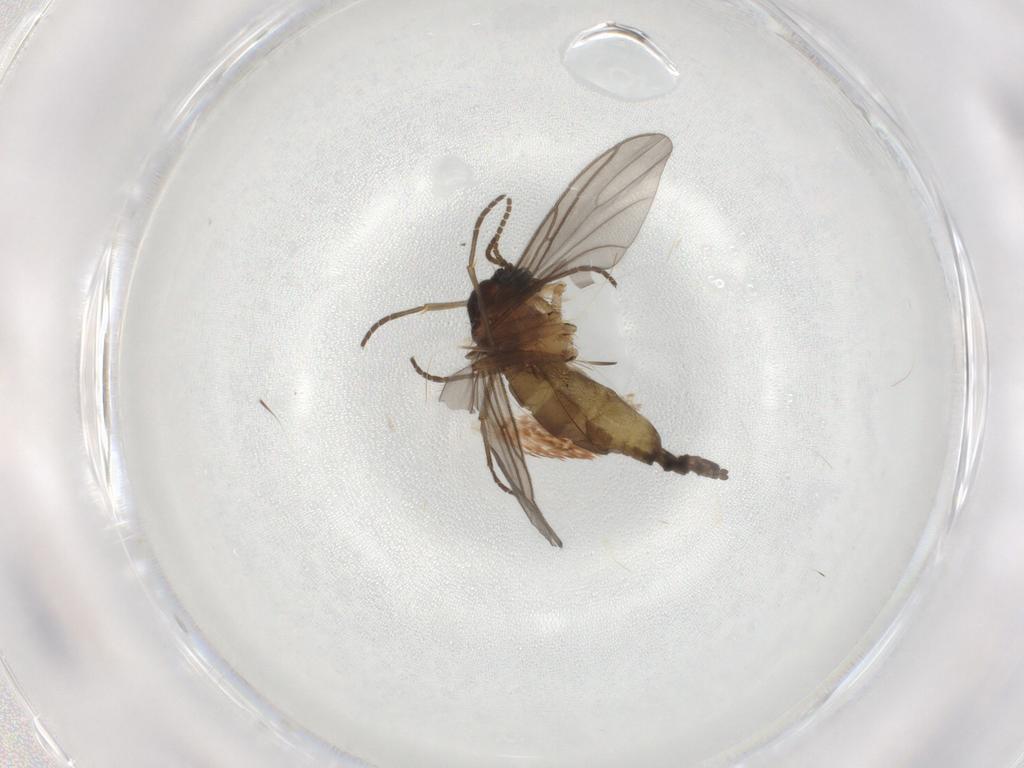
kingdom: Animalia
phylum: Arthropoda
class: Insecta
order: Diptera
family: Sciaridae
